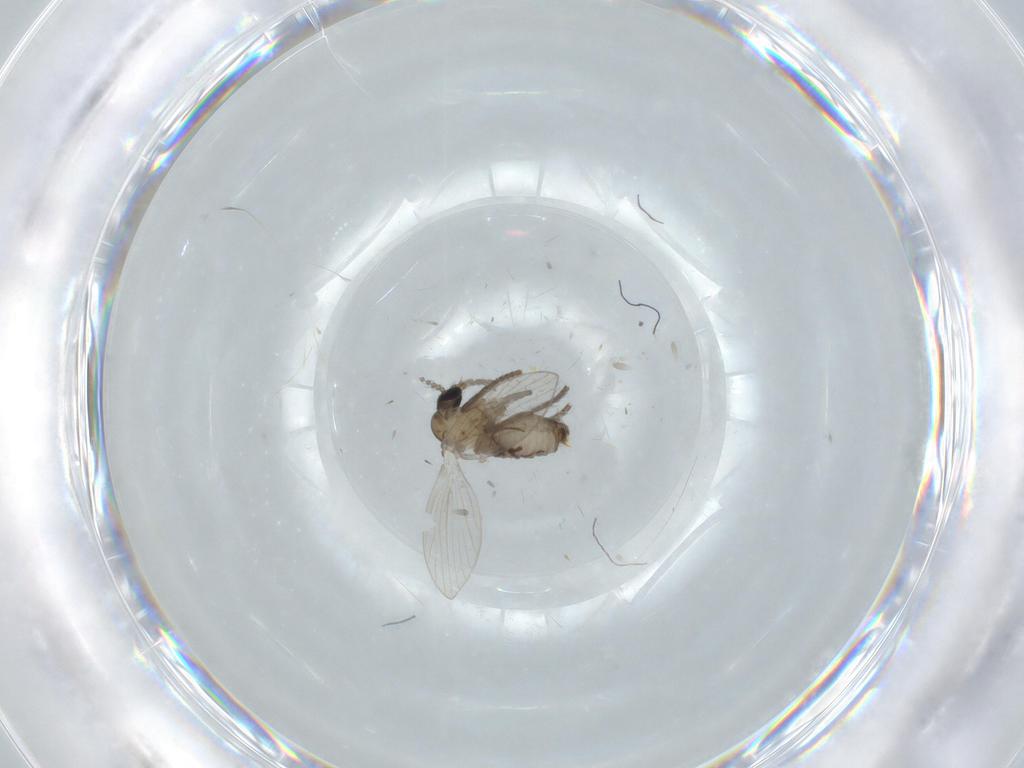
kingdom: Animalia
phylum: Arthropoda
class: Insecta
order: Diptera
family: Psychodidae
